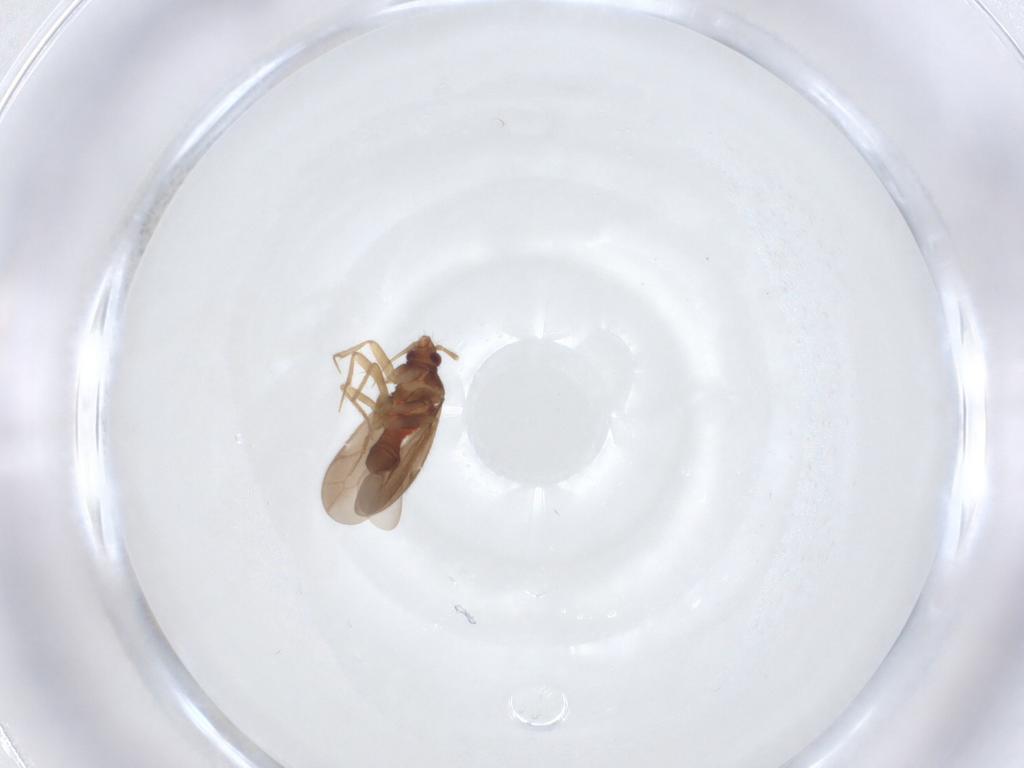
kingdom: Animalia
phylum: Arthropoda
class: Insecta
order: Hemiptera
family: Ceratocombidae
